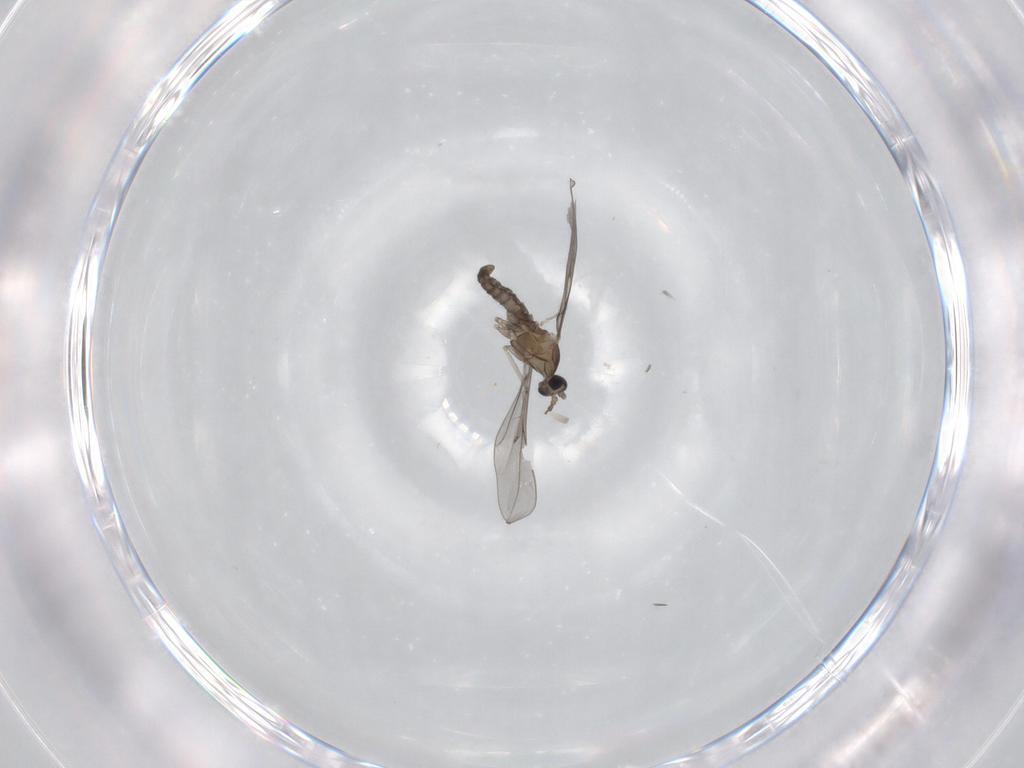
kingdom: Animalia
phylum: Arthropoda
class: Insecta
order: Diptera
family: Cecidomyiidae
